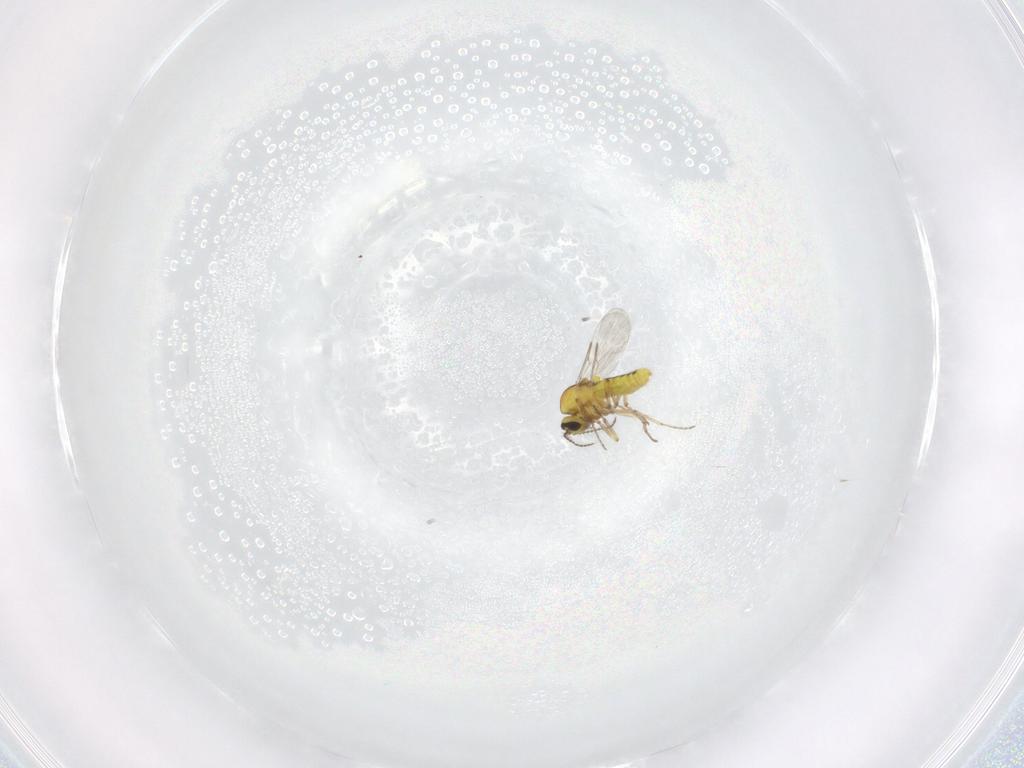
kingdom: Animalia
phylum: Arthropoda
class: Insecta
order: Diptera
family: Ceratopogonidae
